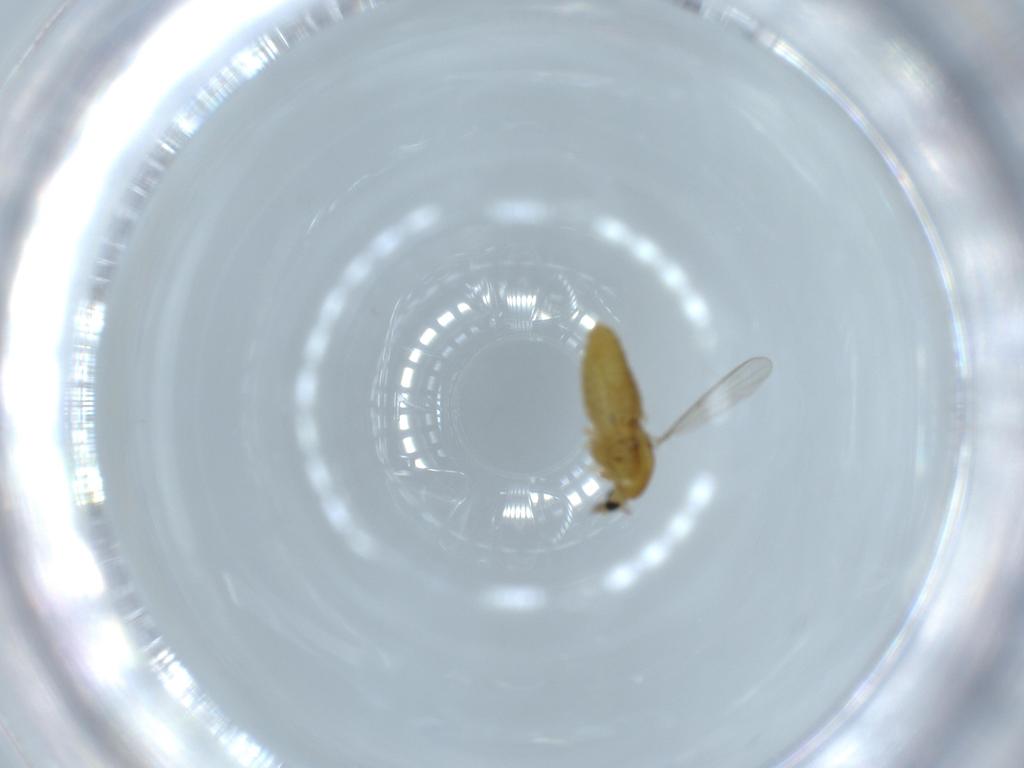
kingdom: Animalia
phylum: Arthropoda
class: Insecta
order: Diptera
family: Chironomidae
